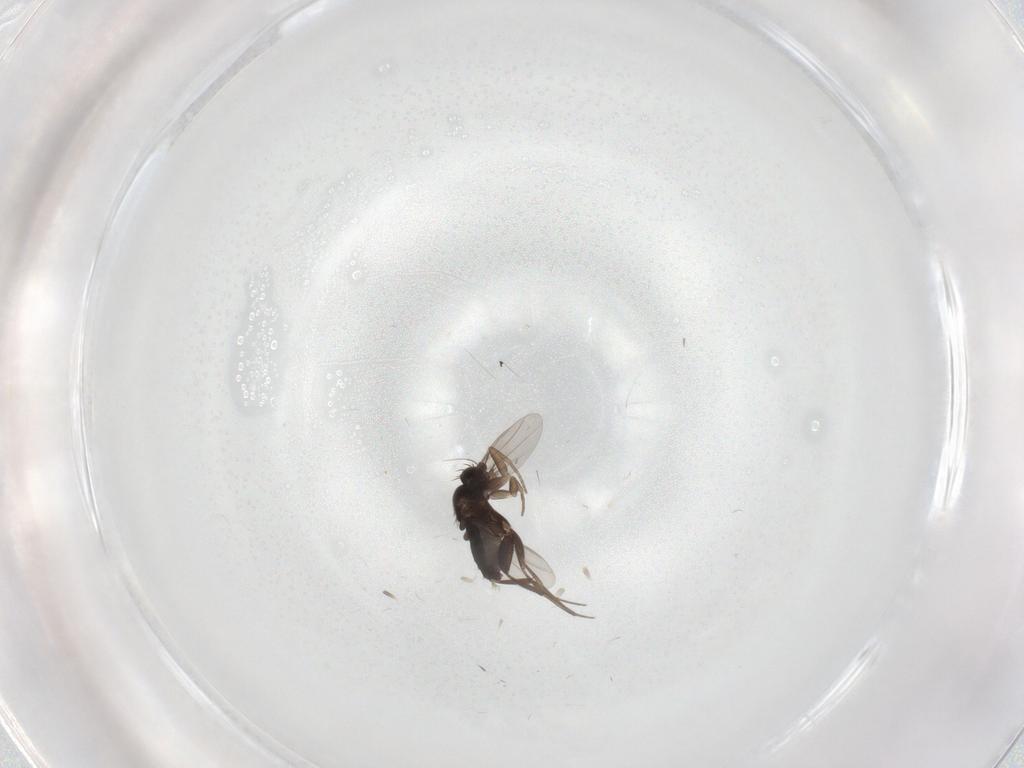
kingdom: Animalia
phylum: Arthropoda
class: Insecta
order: Diptera
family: Phoridae
